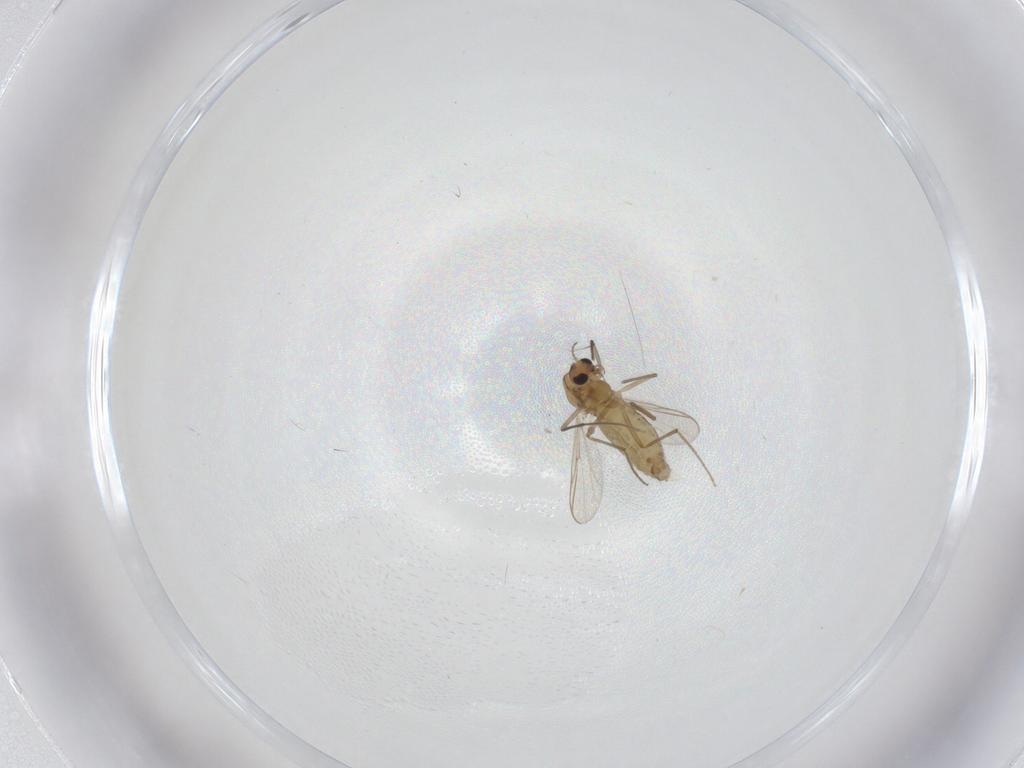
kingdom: Animalia
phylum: Arthropoda
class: Insecta
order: Diptera
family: Chironomidae
